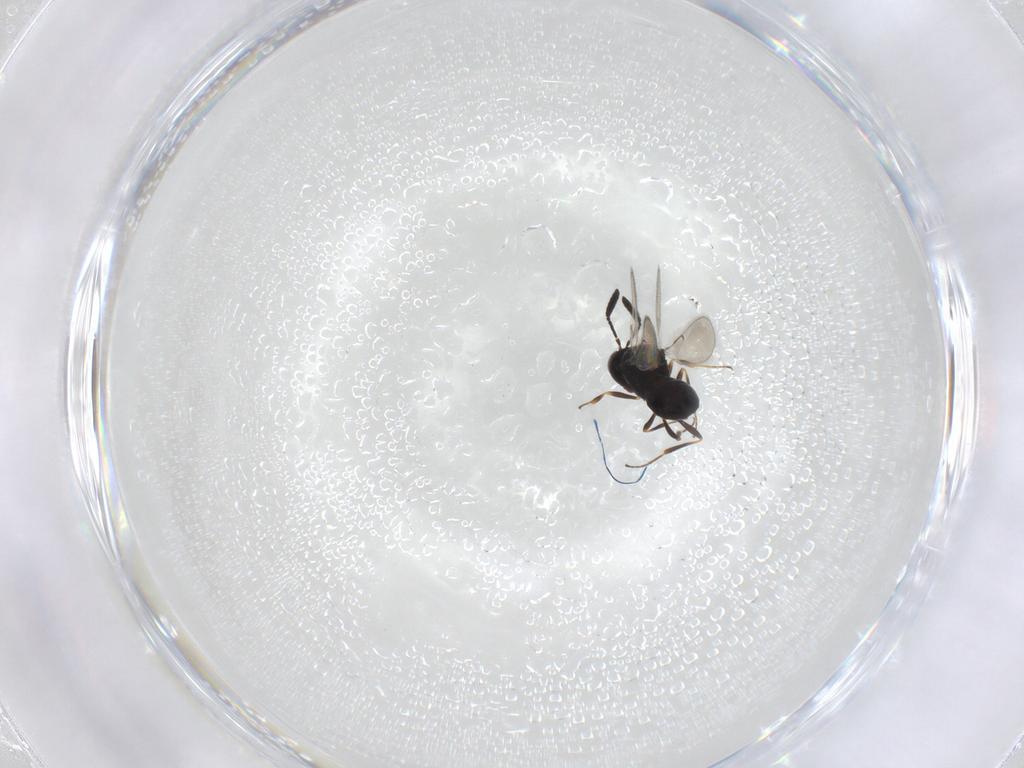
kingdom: Animalia
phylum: Arthropoda
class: Insecta
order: Hymenoptera
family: Scelionidae
